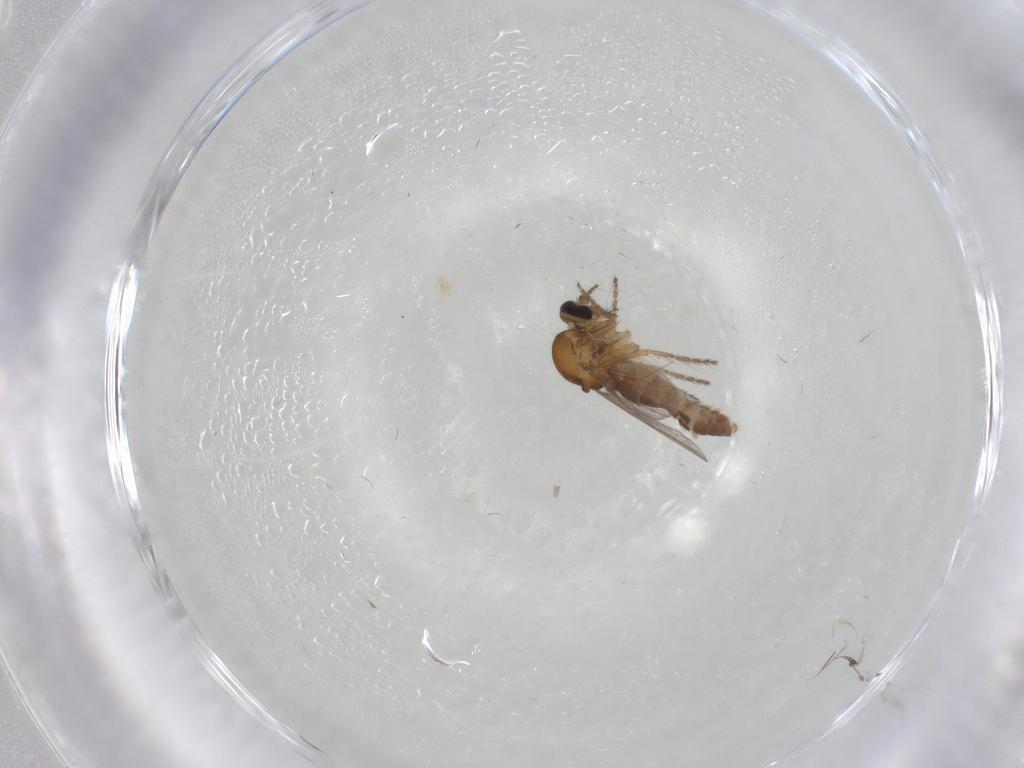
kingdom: Animalia
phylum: Arthropoda
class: Insecta
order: Diptera
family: Ceratopogonidae
